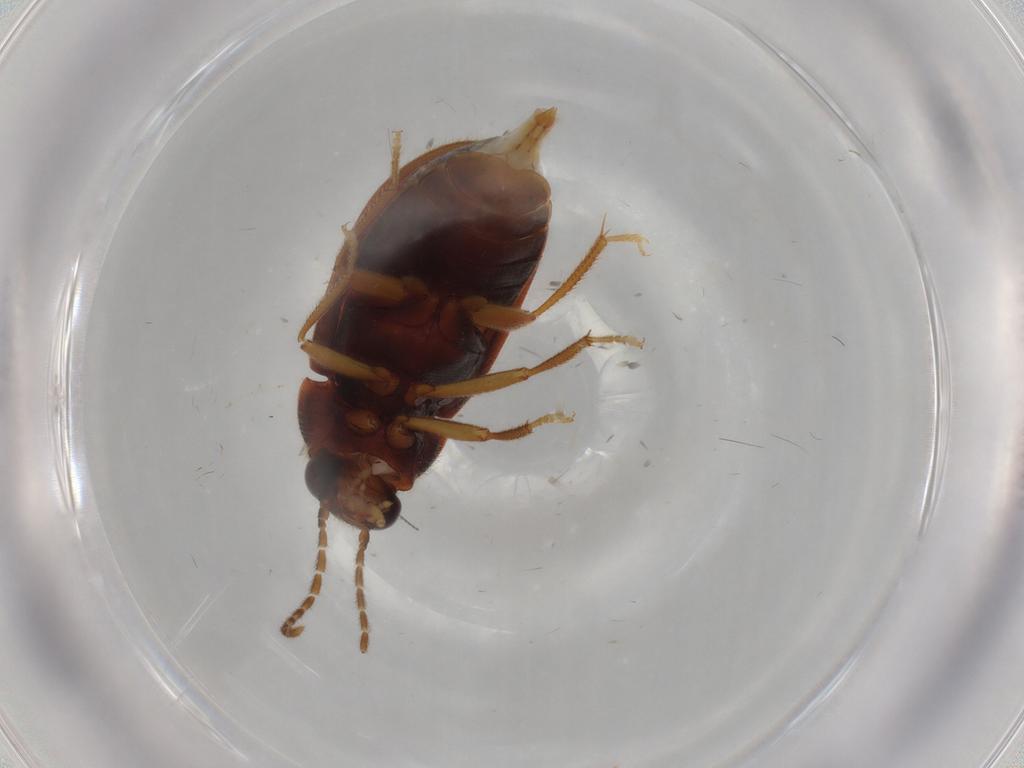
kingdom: Animalia
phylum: Arthropoda
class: Insecta
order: Coleoptera
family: Ptilodactylidae
